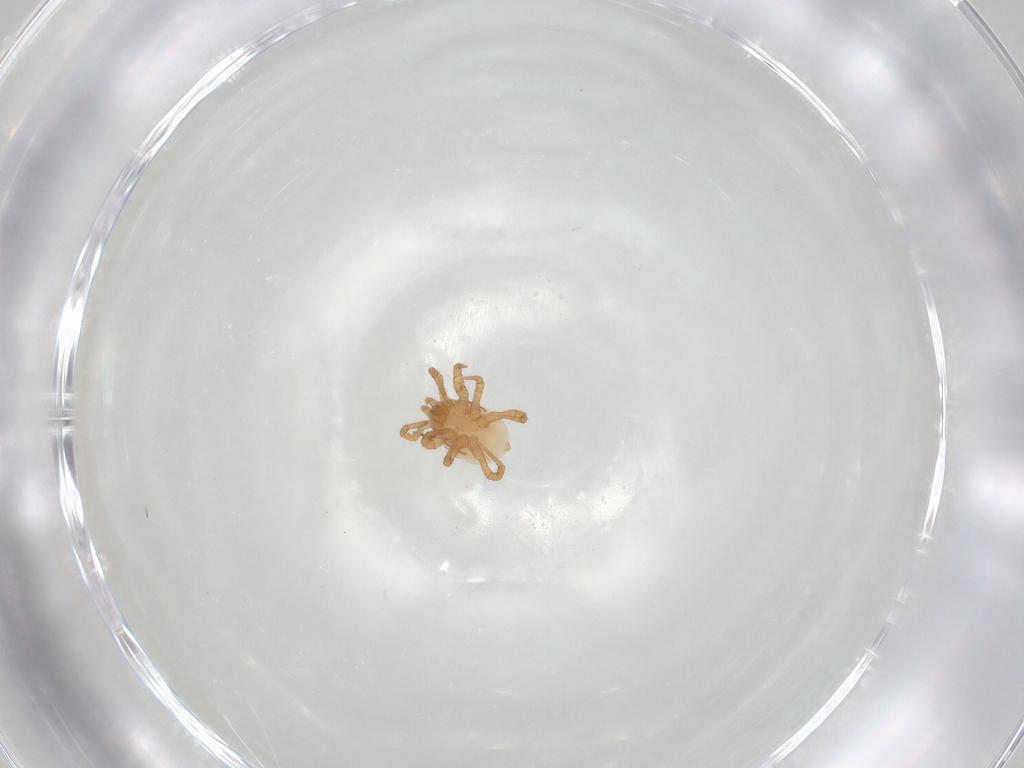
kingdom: Animalia
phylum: Arthropoda
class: Arachnida
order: Mesostigmata
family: Parasitidae
